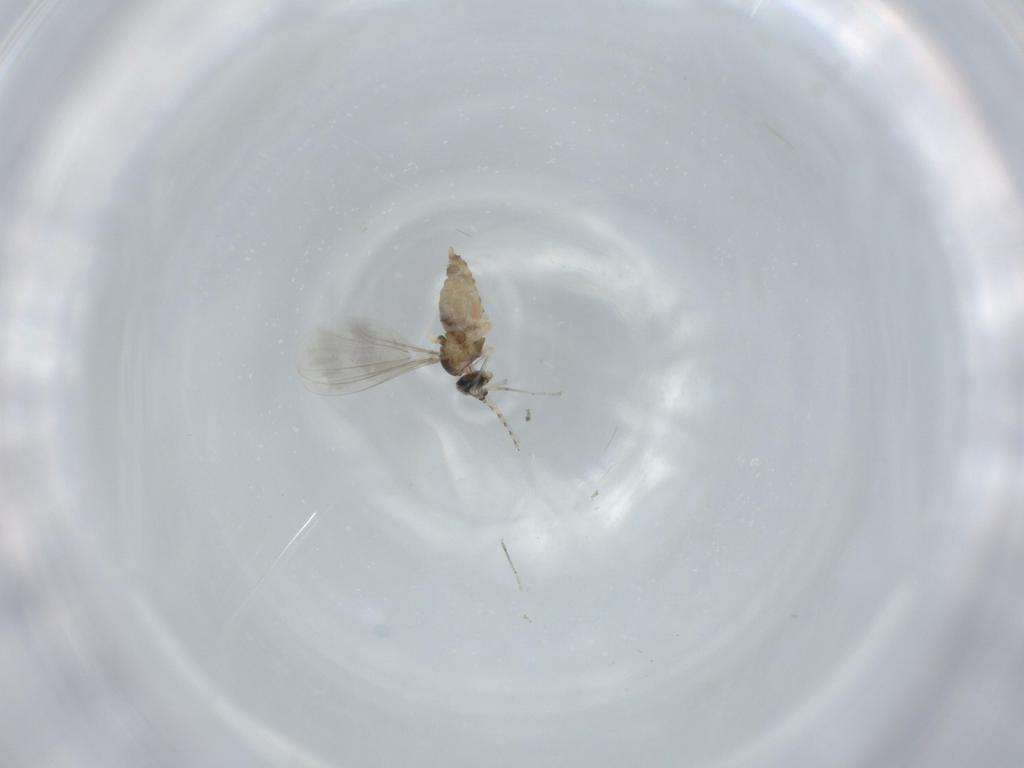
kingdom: Animalia
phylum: Arthropoda
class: Insecta
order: Diptera
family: Cecidomyiidae
